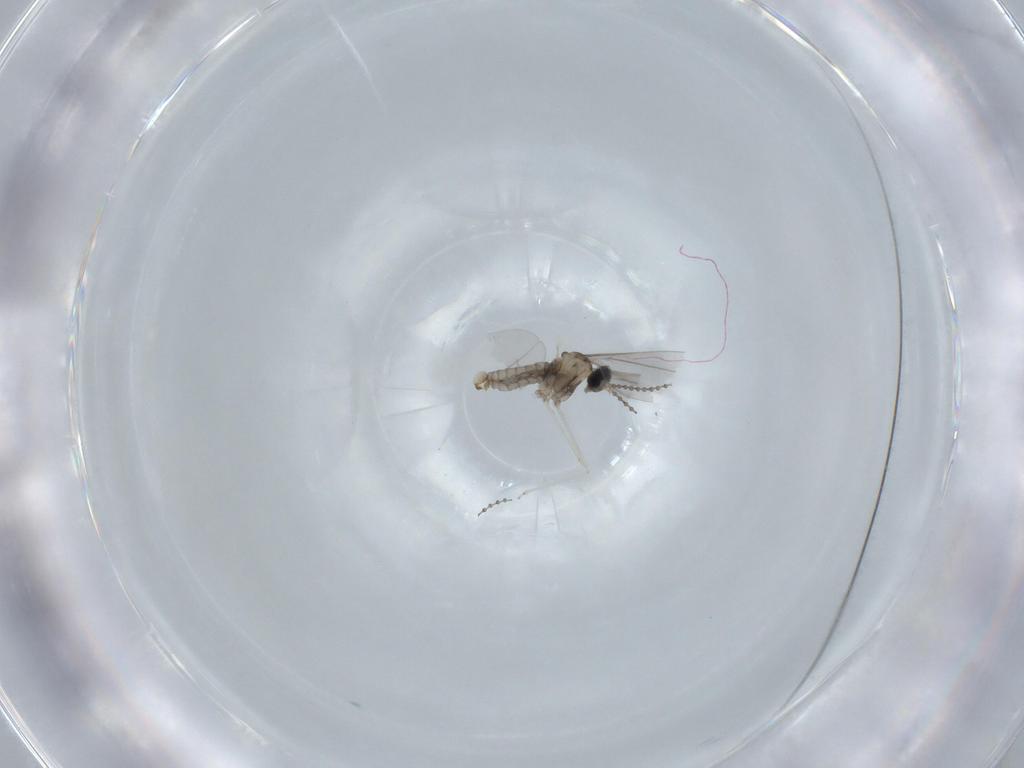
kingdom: Animalia
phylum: Arthropoda
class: Insecta
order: Diptera
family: Cecidomyiidae
